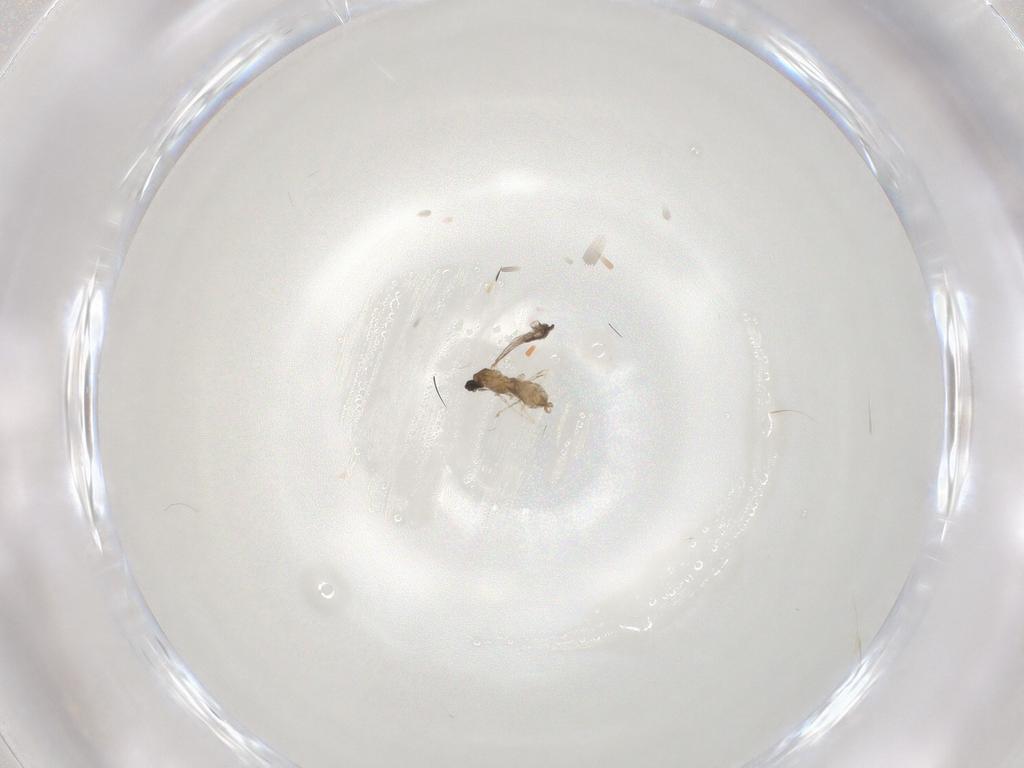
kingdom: Animalia
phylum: Arthropoda
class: Insecta
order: Diptera
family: Cecidomyiidae
